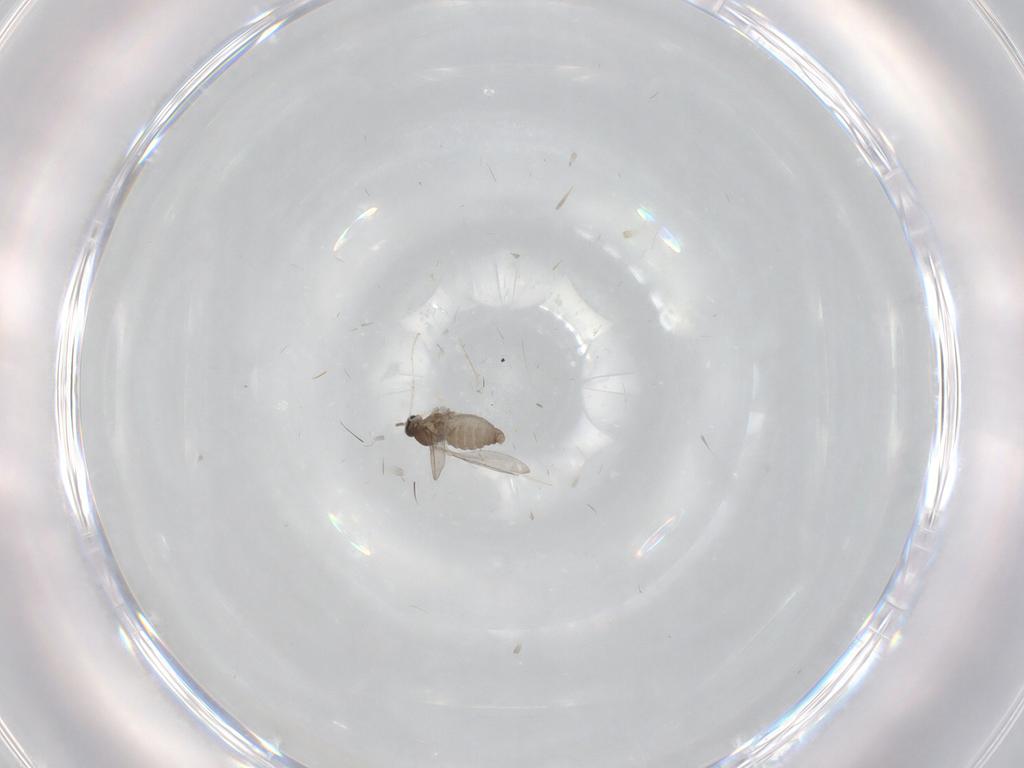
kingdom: Animalia
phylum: Arthropoda
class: Insecta
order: Diptera
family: Cecidomyiidae
